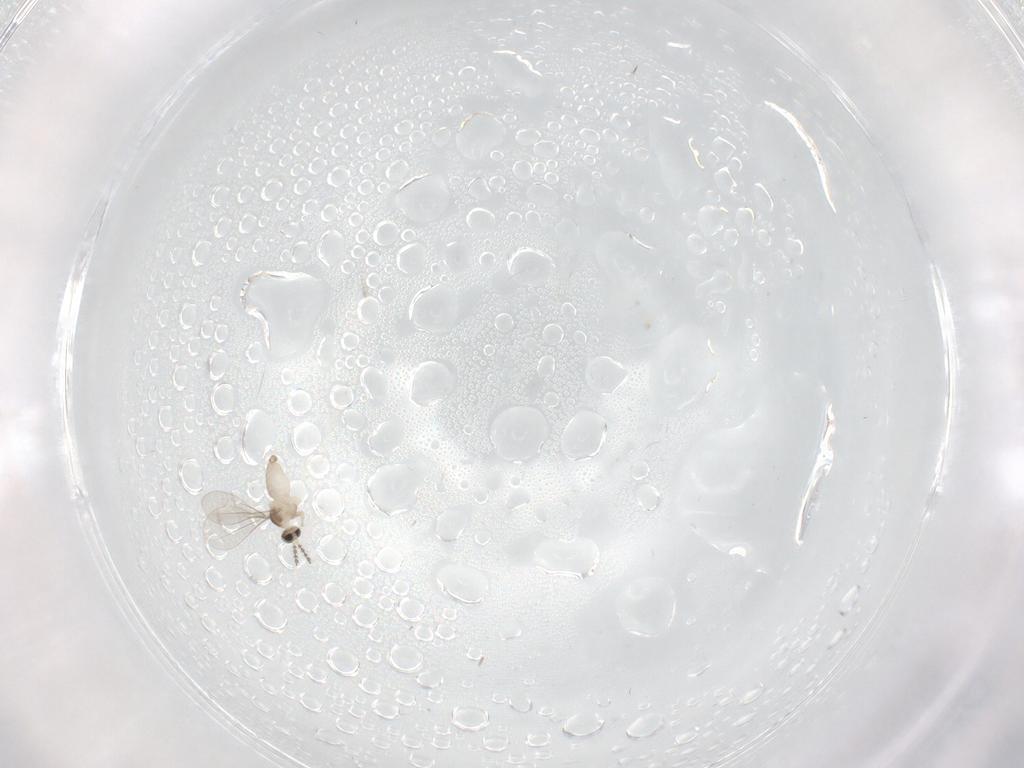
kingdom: Animalia
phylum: Arthropoda
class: Insecta
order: Diptera
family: Cecidomyiidae
